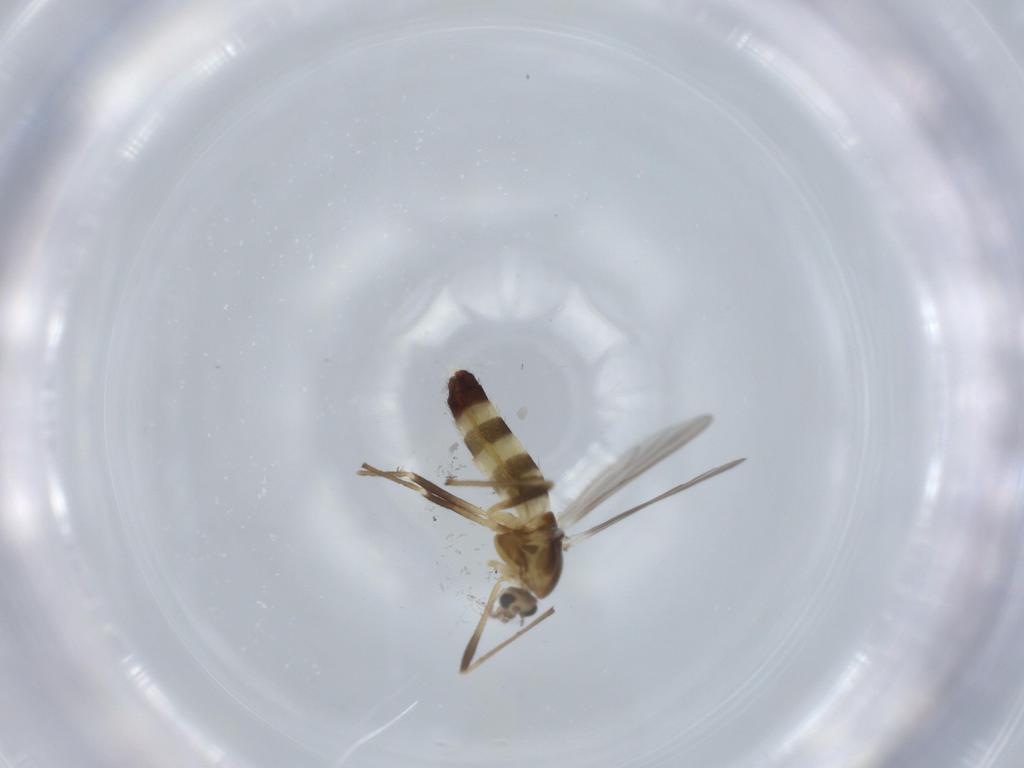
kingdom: Animalia
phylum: Arthropoda
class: Insecta
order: Diptera
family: Chironomidae
